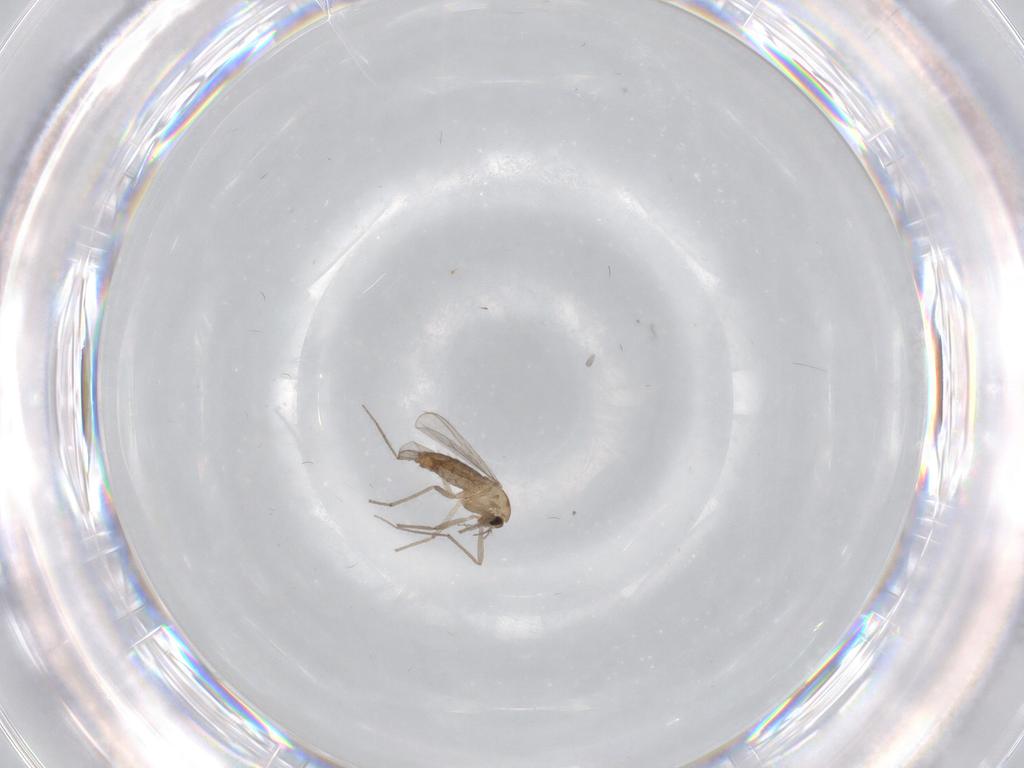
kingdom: Animalia
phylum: Arthropoda
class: Insecta
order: Diptera
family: Chironomidae
